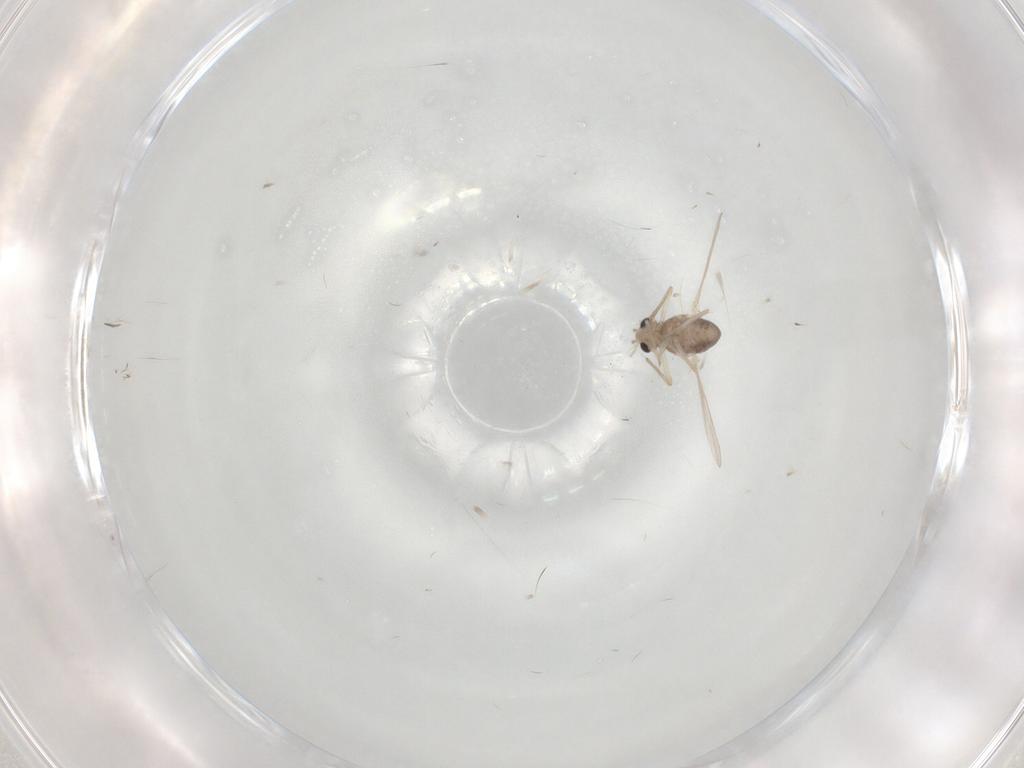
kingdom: Animalia
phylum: Arthropoda
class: Insecta
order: Diptera
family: Chironomidae
